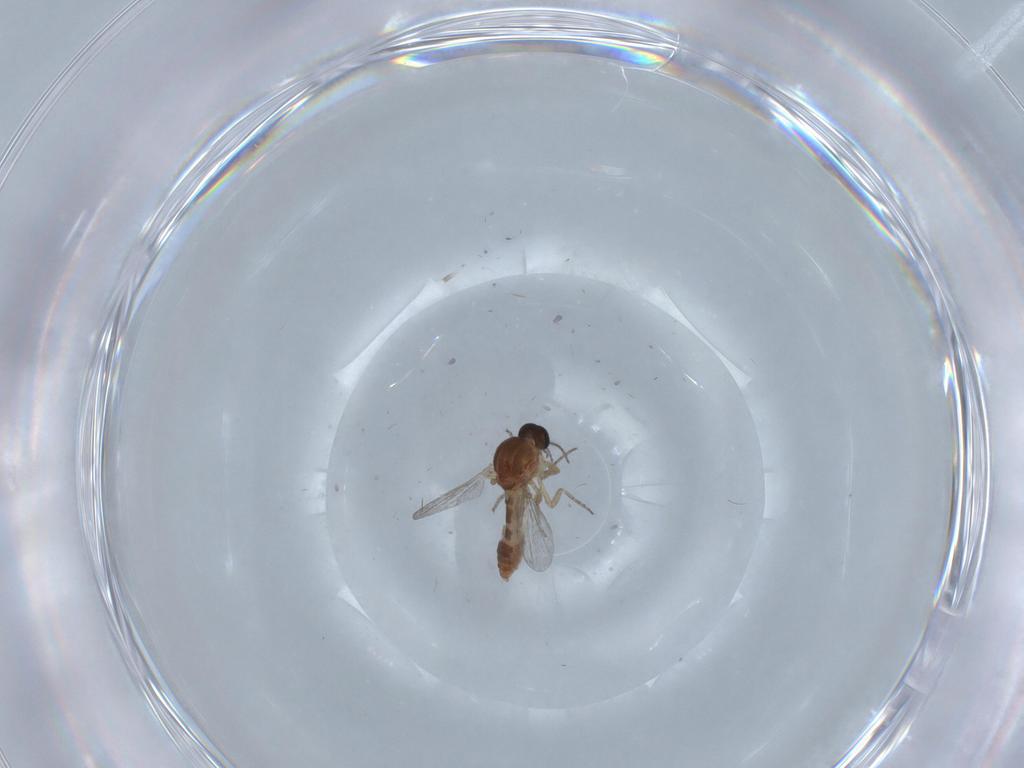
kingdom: Animalia
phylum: Arthropoda
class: Insecta
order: Diptera
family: Ceratopogonidae
